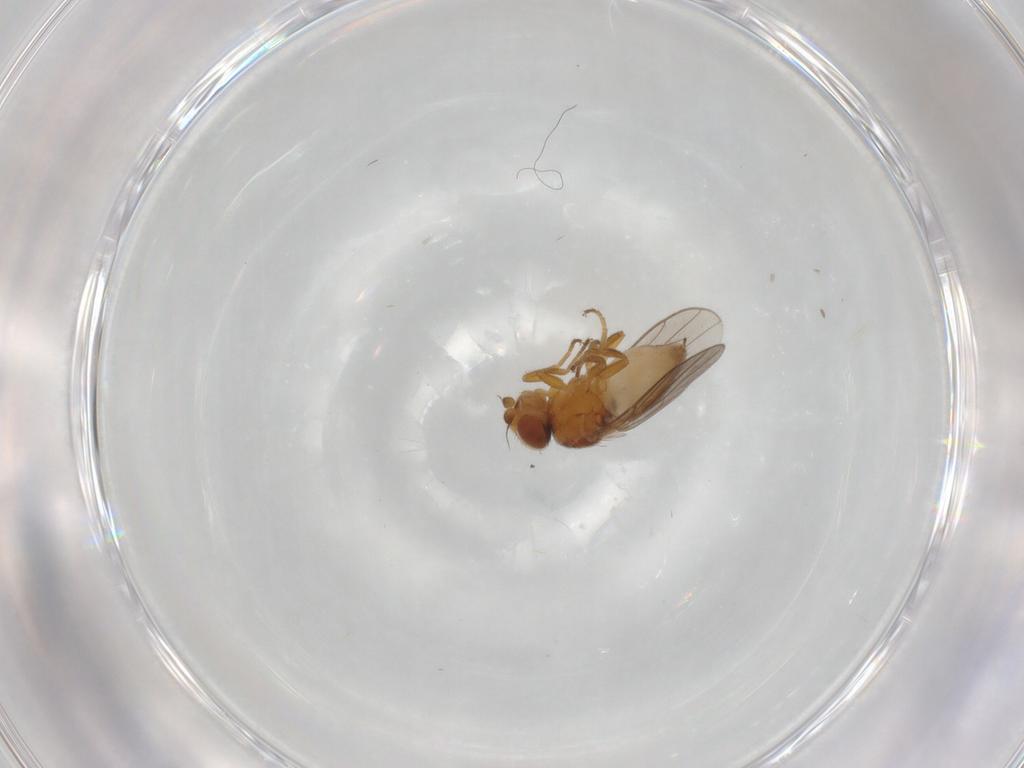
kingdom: Animalia
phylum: Arthropoda
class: Insecta
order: Diptera
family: Chloropidae
